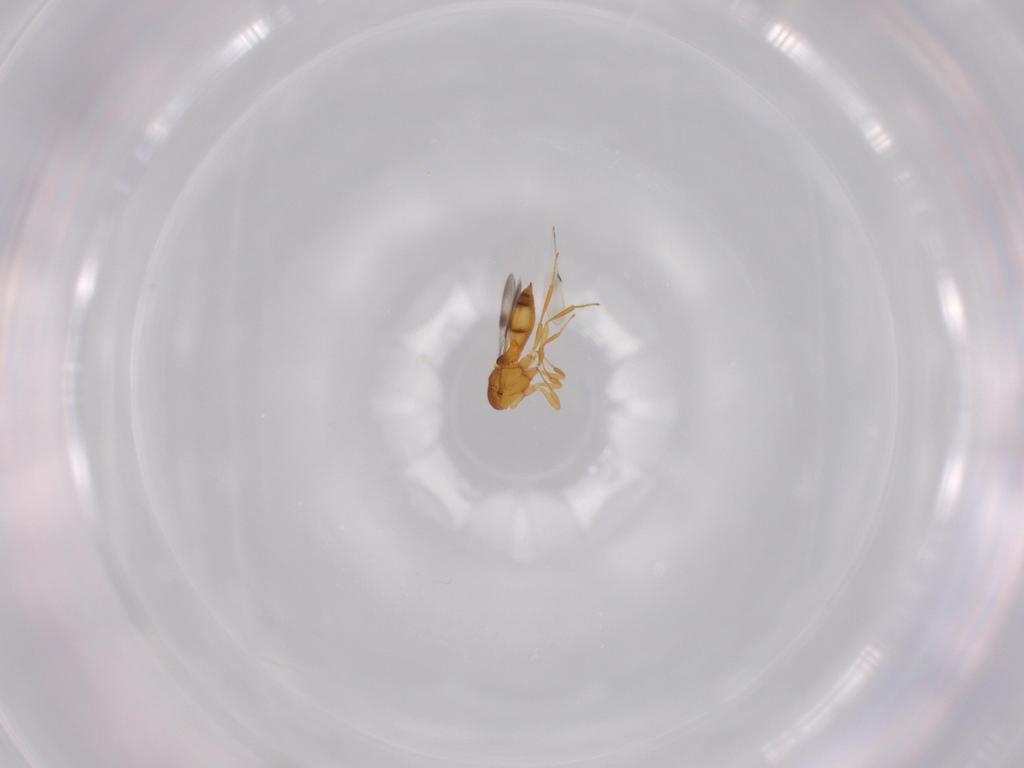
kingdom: Animalia
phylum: Arthropoda
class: Insecta
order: Hymenoptera
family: Scelionidae
